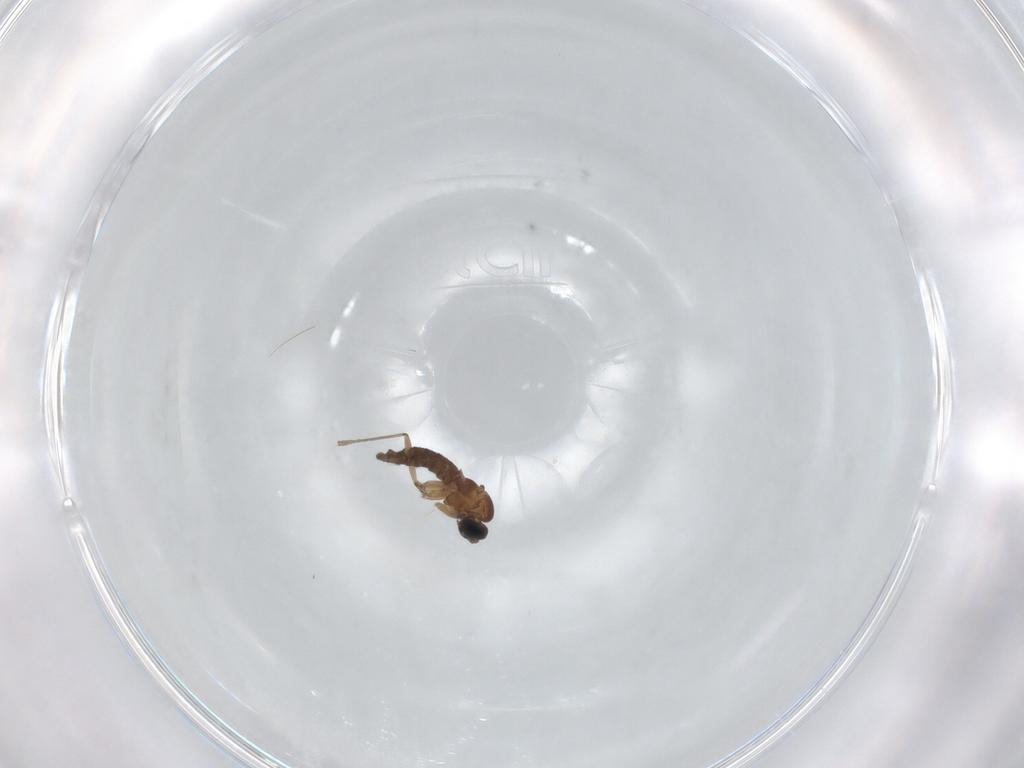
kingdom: Animalia
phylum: Arthropoda
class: Insecta
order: Diptera
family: Sciaridae
